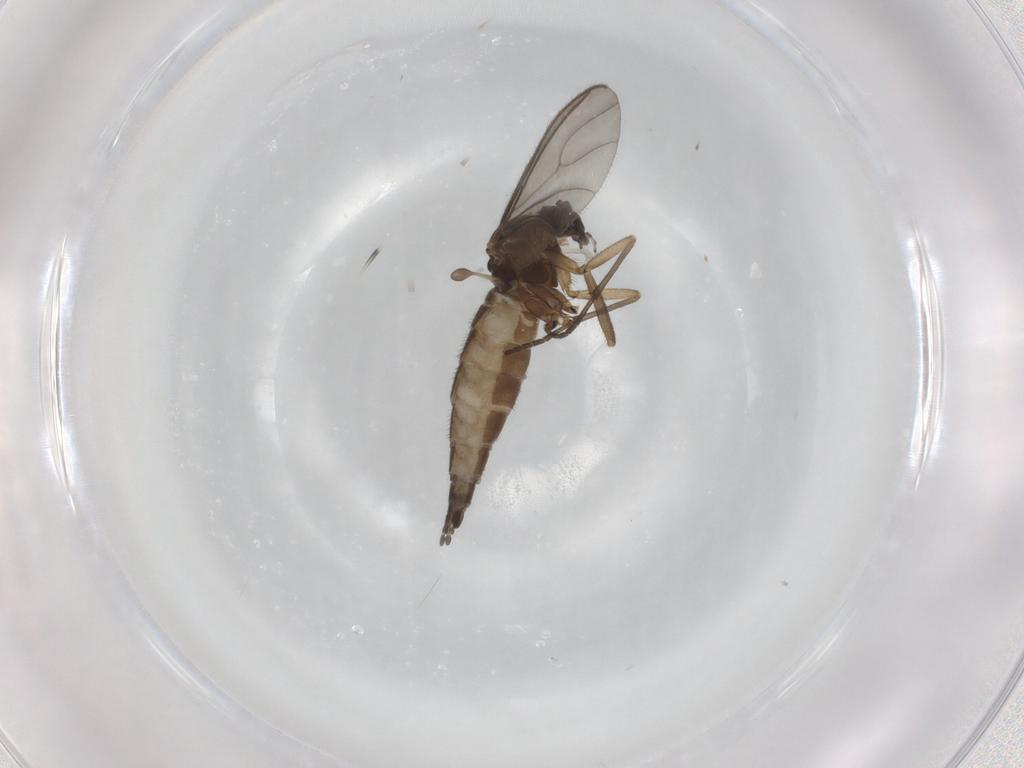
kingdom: Animalia
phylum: Arthropoda
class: Insecta
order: Diptera
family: Sciaridae
